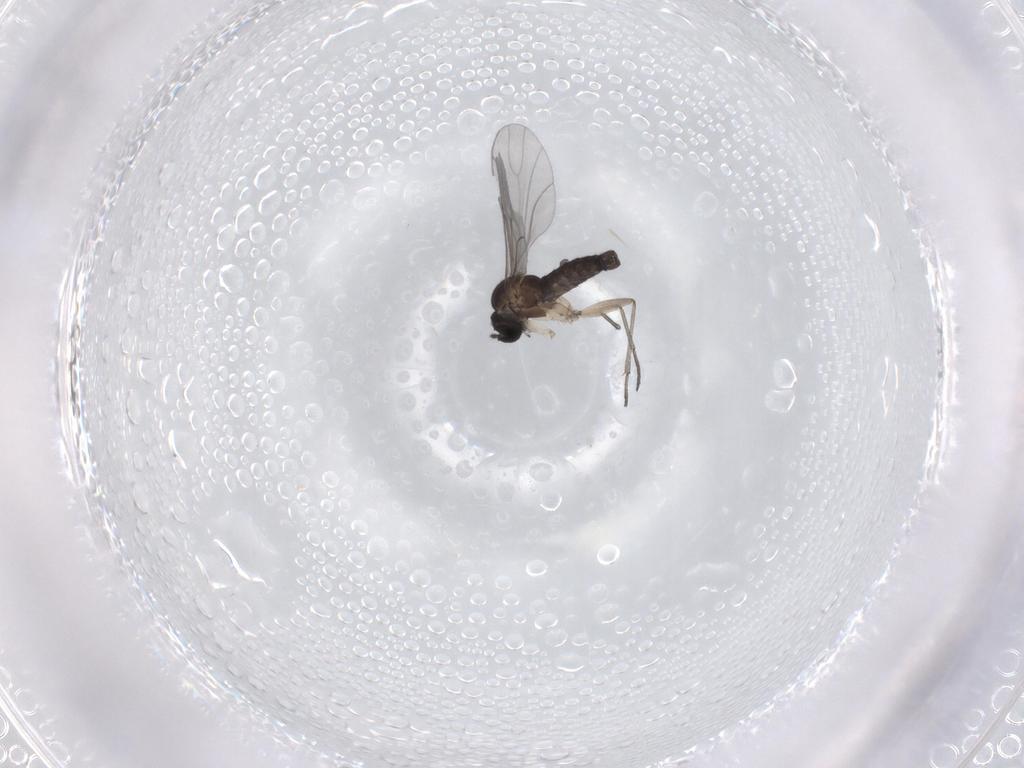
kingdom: Animalia
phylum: Arthropoda
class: Insecta
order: Diptera
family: Sciaridae
